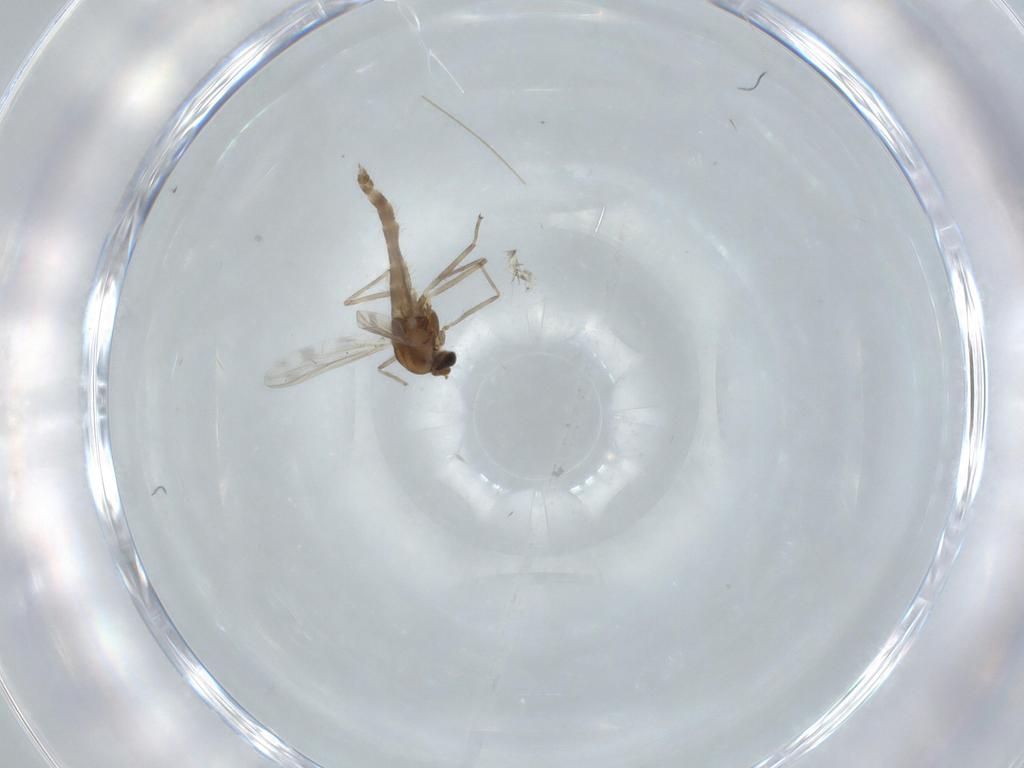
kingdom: Animalia
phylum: Arthropoda
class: Insecta
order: Diptera
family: Chironomidae
